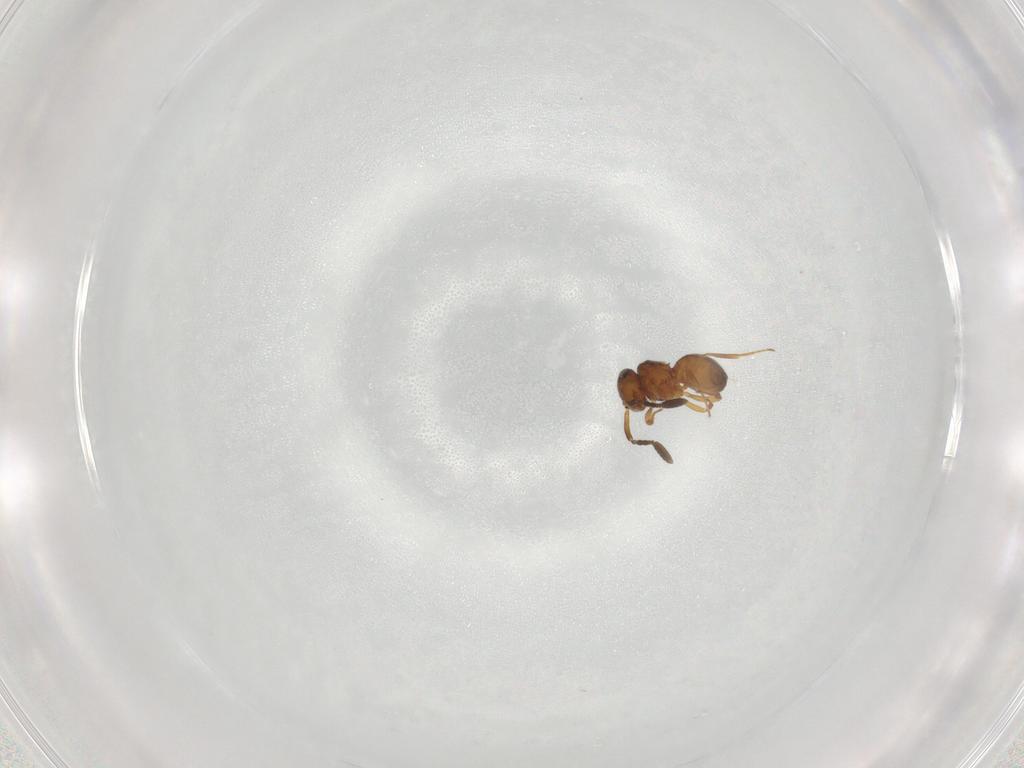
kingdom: Animalia
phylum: Arthropoda
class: Insecta
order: Hymenoptera
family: Scelionidae
